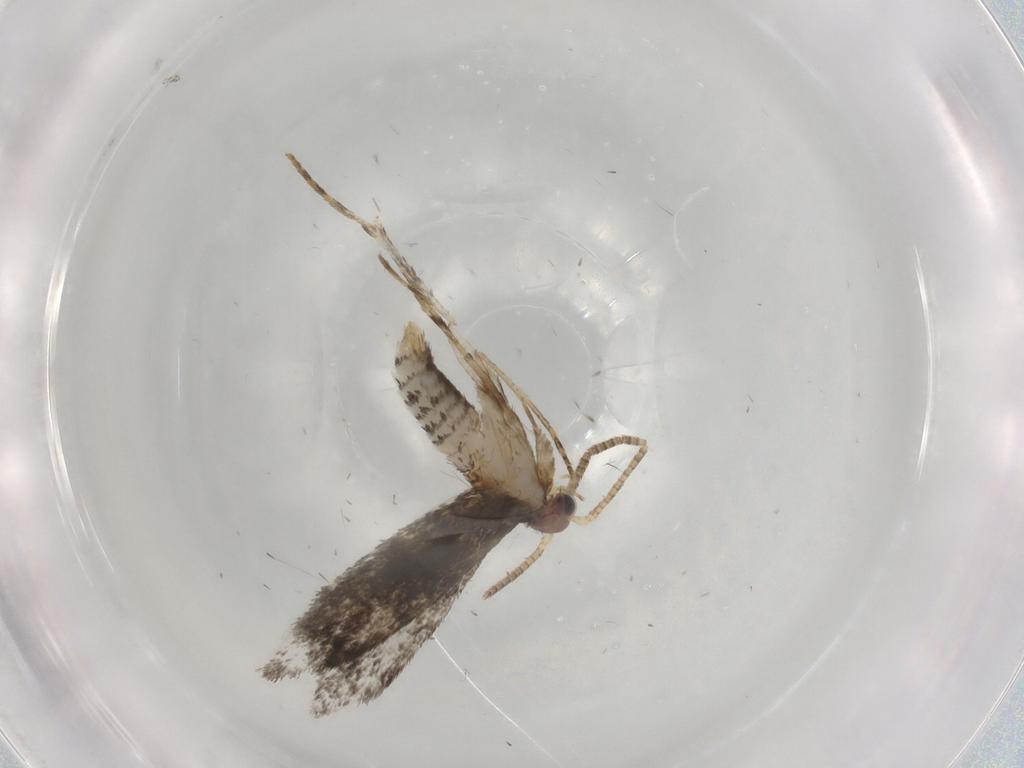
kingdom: Animalia
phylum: Arthropoda
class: Insecta
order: Lepidoptera
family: Tineidae
